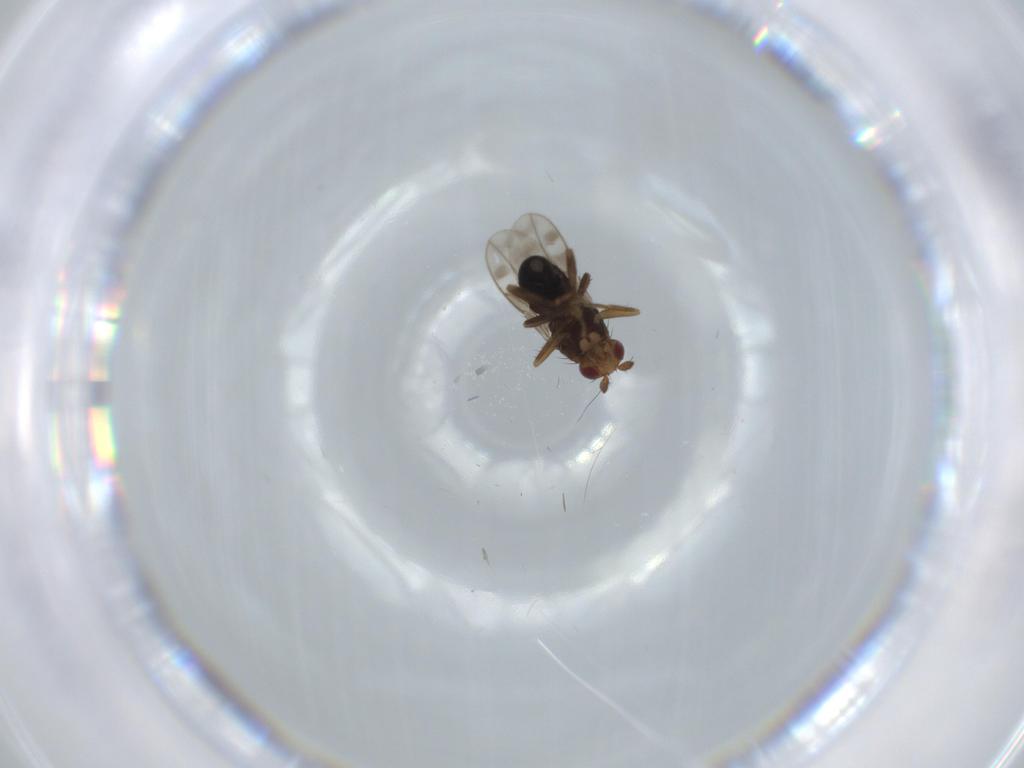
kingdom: Animalia
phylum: Arthropoda
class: Insecta
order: Diptera
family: Sphaeroceridae
